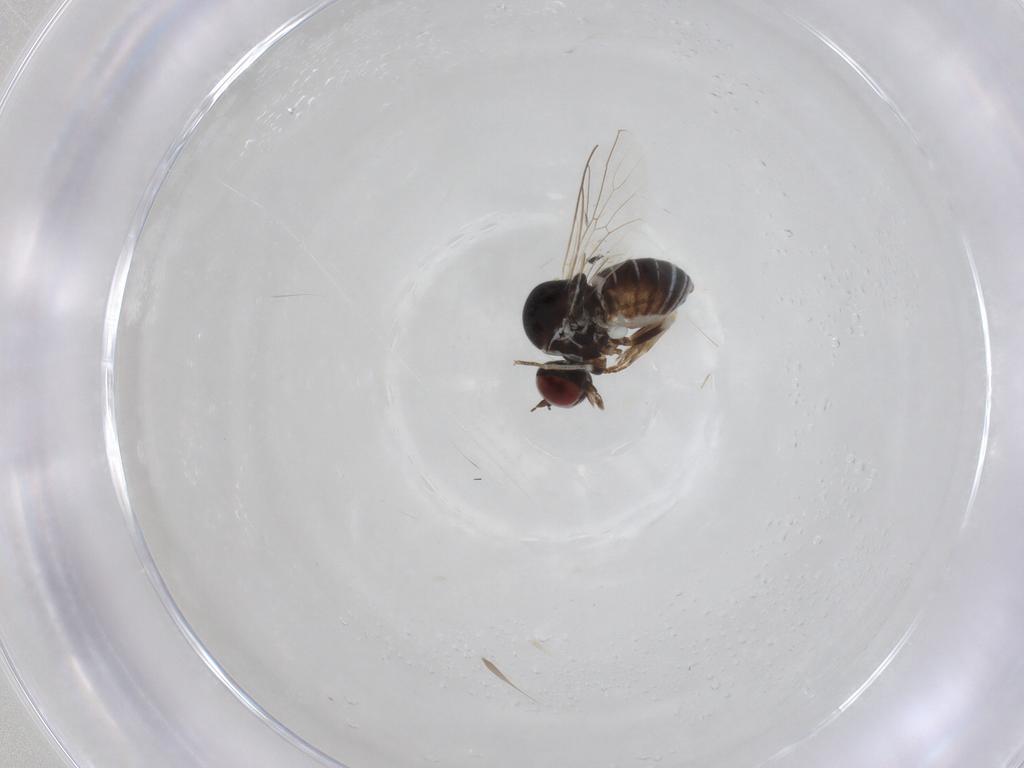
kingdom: Animalia
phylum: Arthropoda
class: Insecta
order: Diptera
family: Bombyliidae
